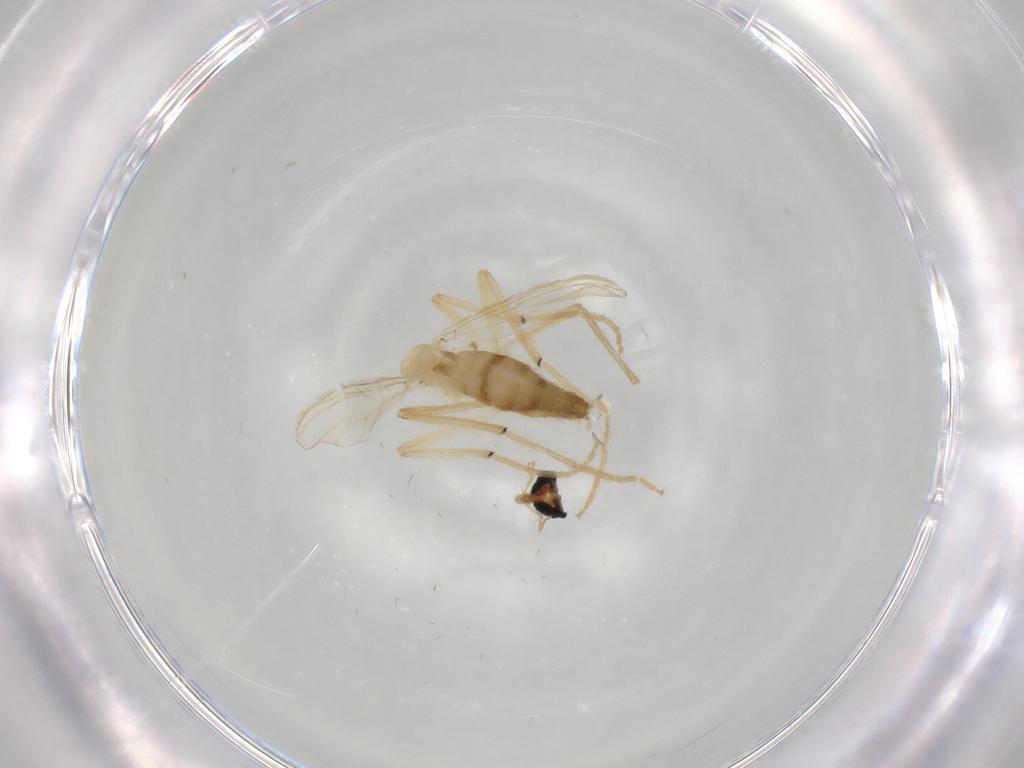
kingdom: Animalia
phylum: Arthropoda
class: Insecta
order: Diptera
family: Chironomidae
